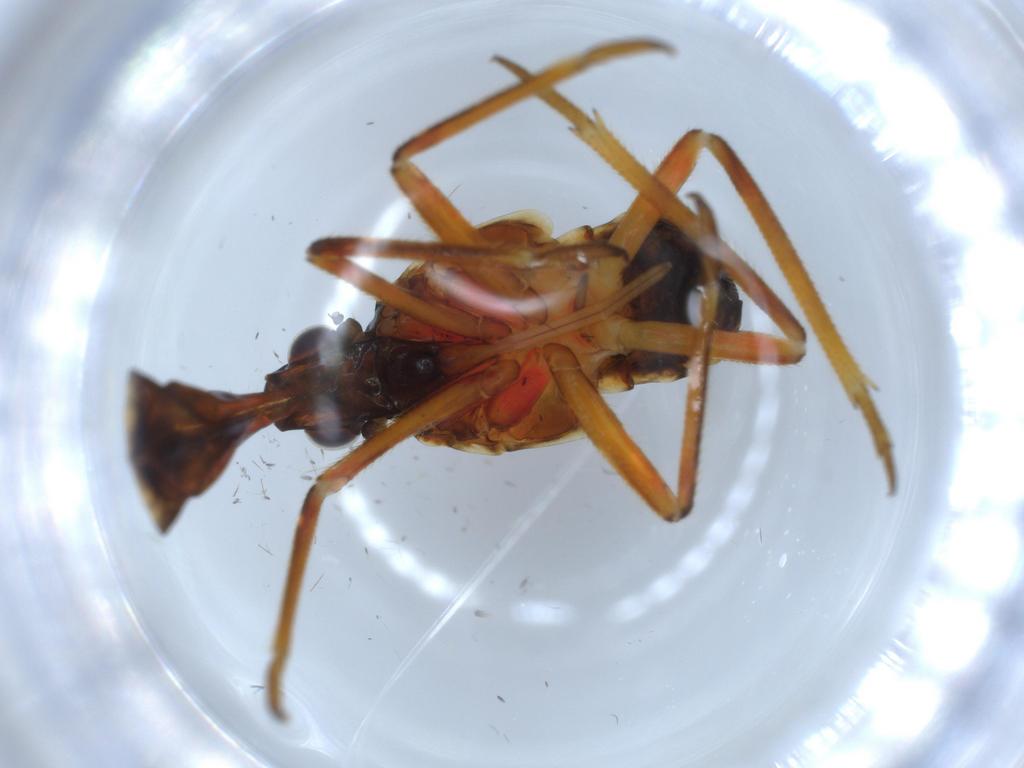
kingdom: Animalia
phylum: Arthropoda
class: Insecta
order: Hemiptera
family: Fulgoridae
